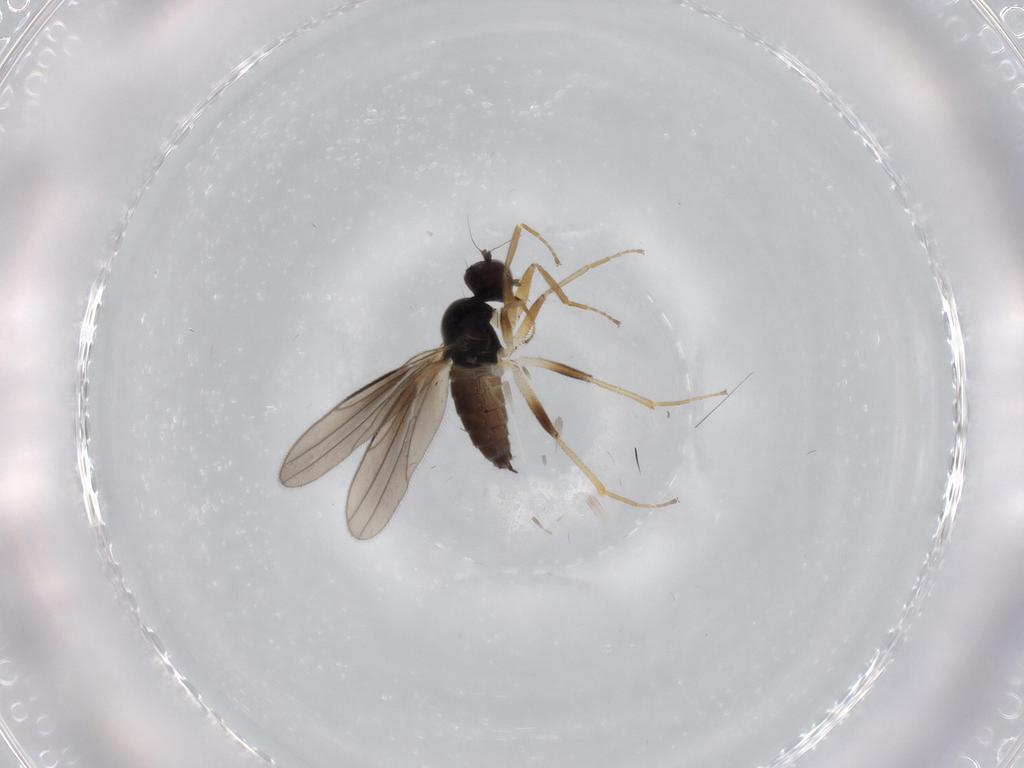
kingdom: Animalia
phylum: Arthropoda
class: Insecta
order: Diptera
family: Hybotidae
